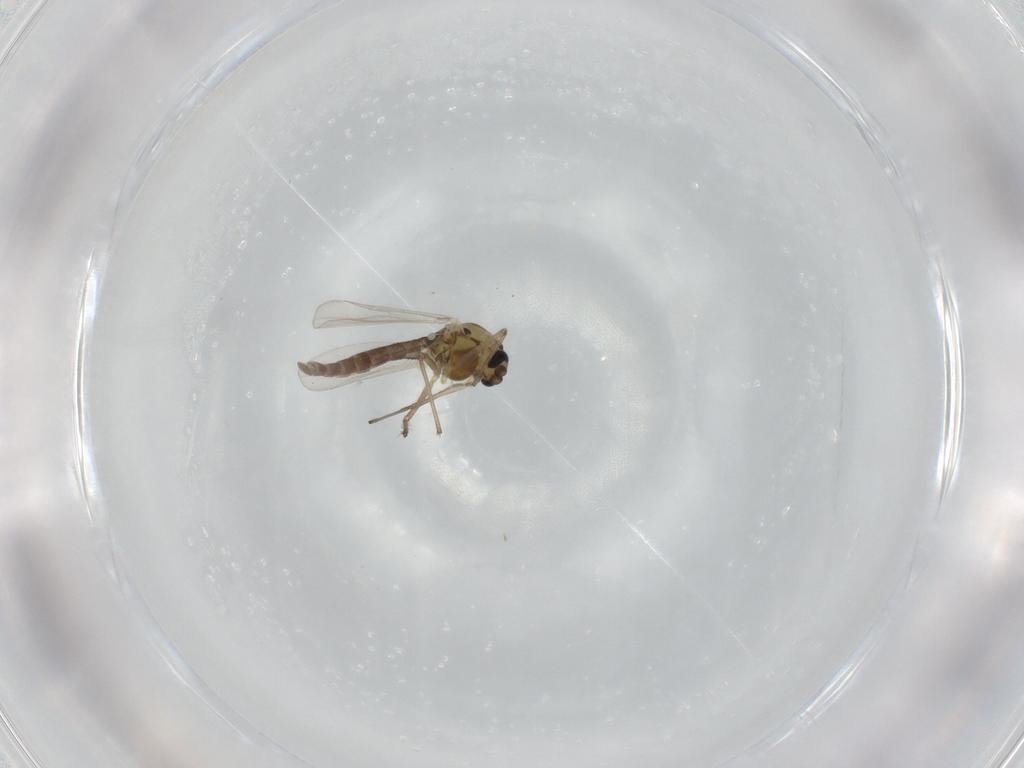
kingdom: Animalia
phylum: Arthropoda
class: Insecta
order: Diptera
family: Chironomidae
